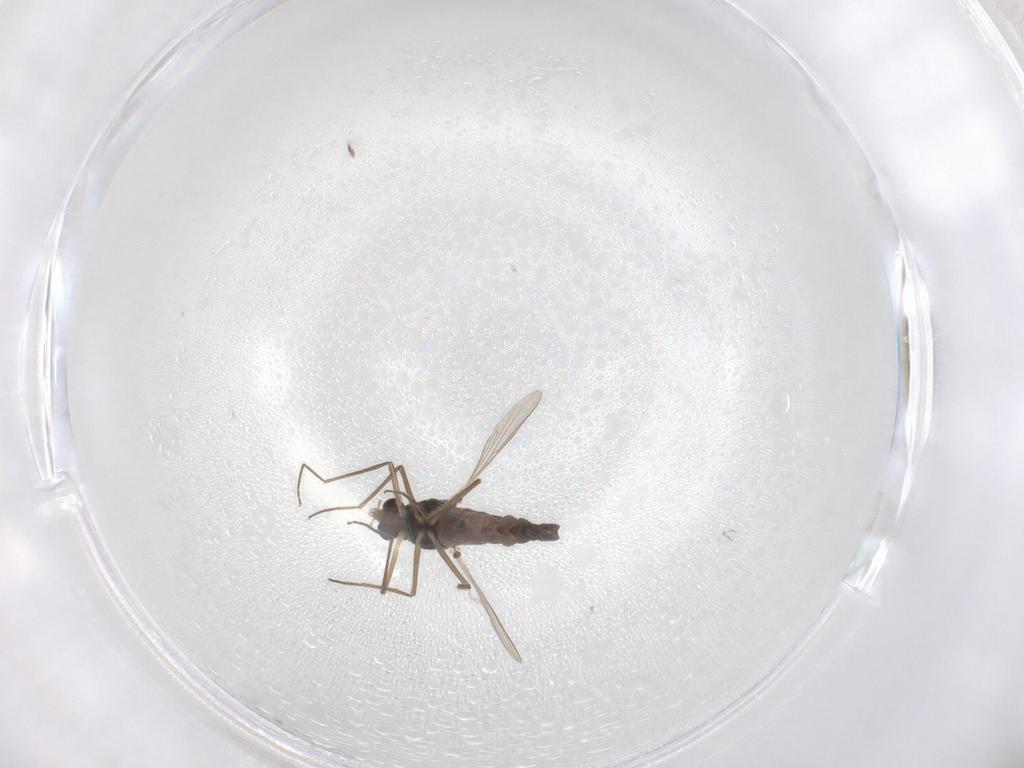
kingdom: Animalia
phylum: Arthropoda
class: Insecta
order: Diptera
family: Chironomidae
